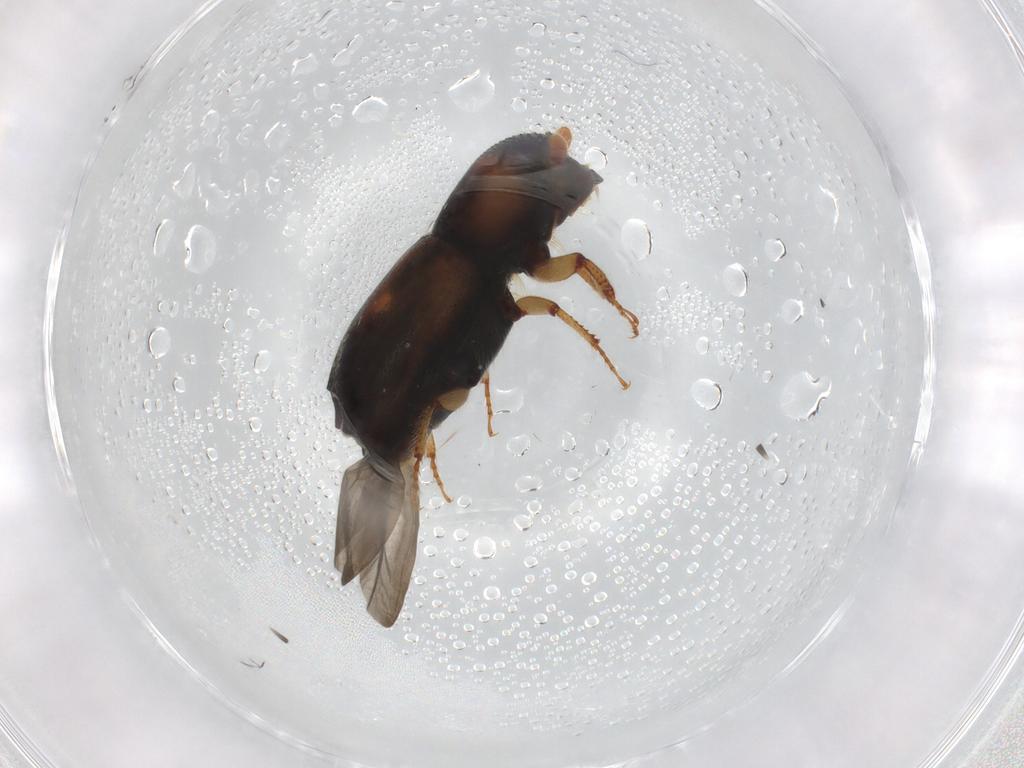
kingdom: Animalia
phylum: Arthropoda
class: Insecta
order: Coleoptera
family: Curculionidae
